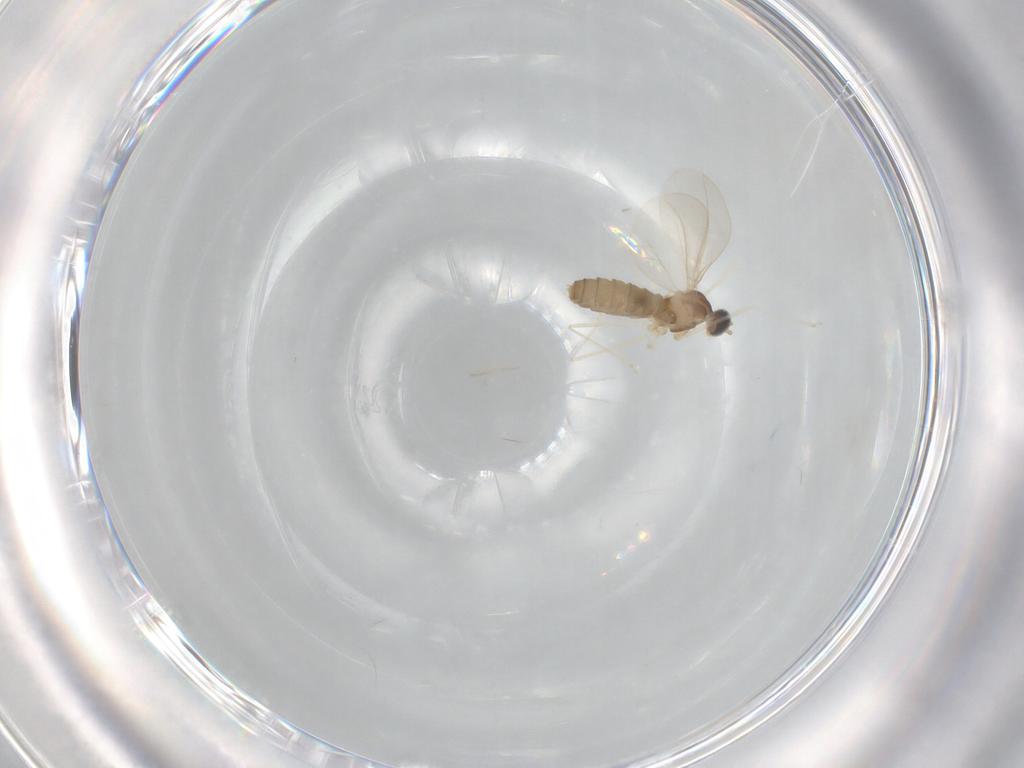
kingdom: Animalia
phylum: Arthropoda
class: Insecta
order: Diptera
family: Cecidomyiidae
